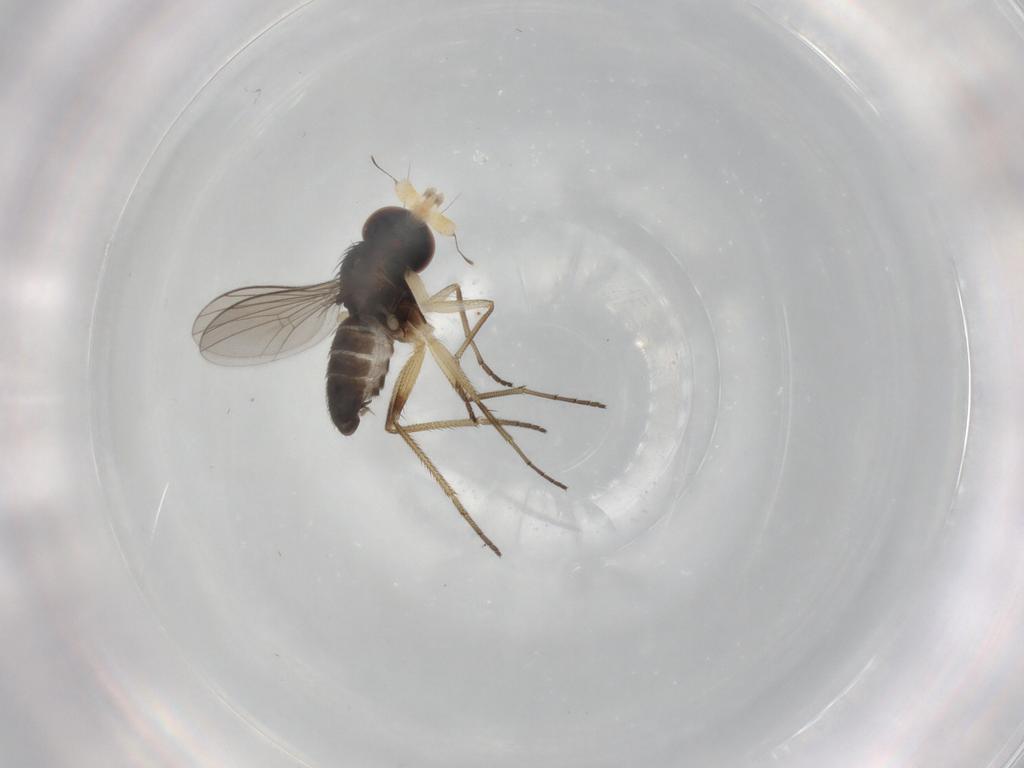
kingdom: Animalia
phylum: Arthropoda
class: Insecta
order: Diptera
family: Dolichopodidae
